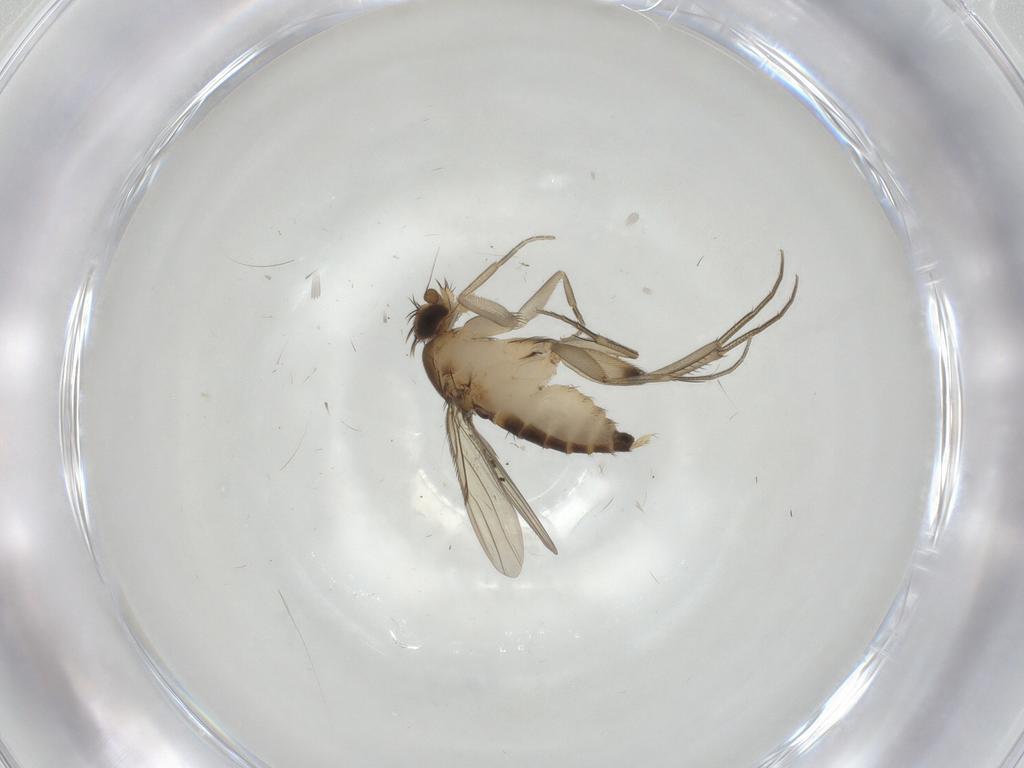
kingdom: Animalia
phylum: Arthropoda
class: Insecta
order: Diptera
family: Phoridae
